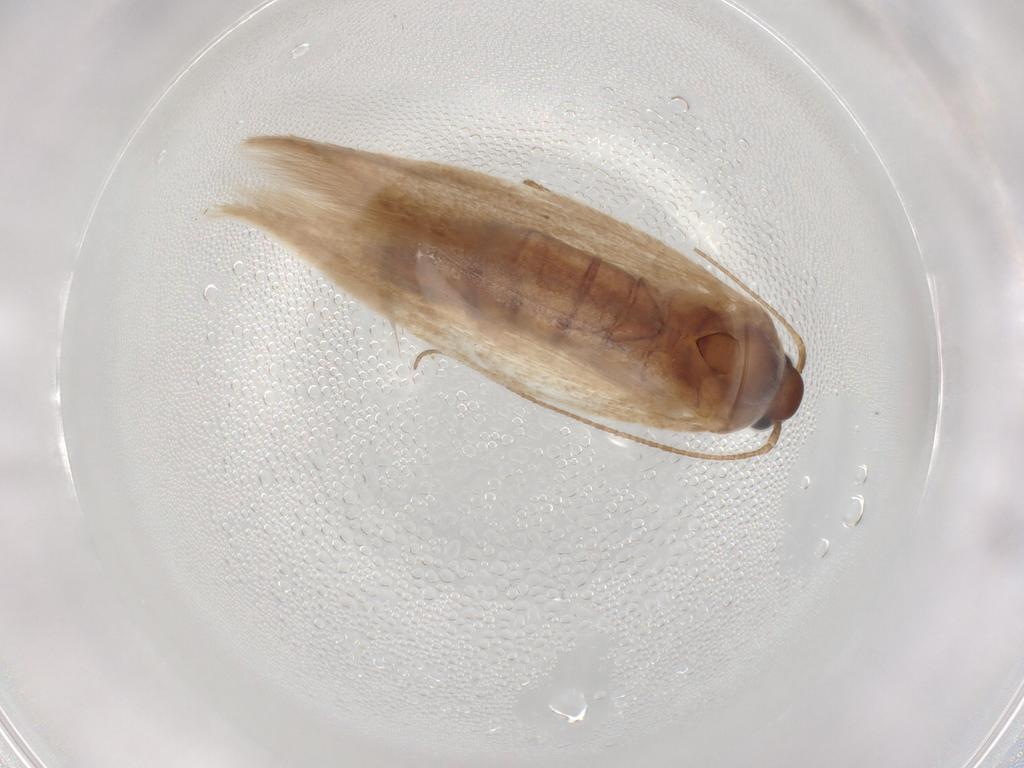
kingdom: Animalia
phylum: Arthropoda
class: Insecta
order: Lepidoptera
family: Scythrididae
